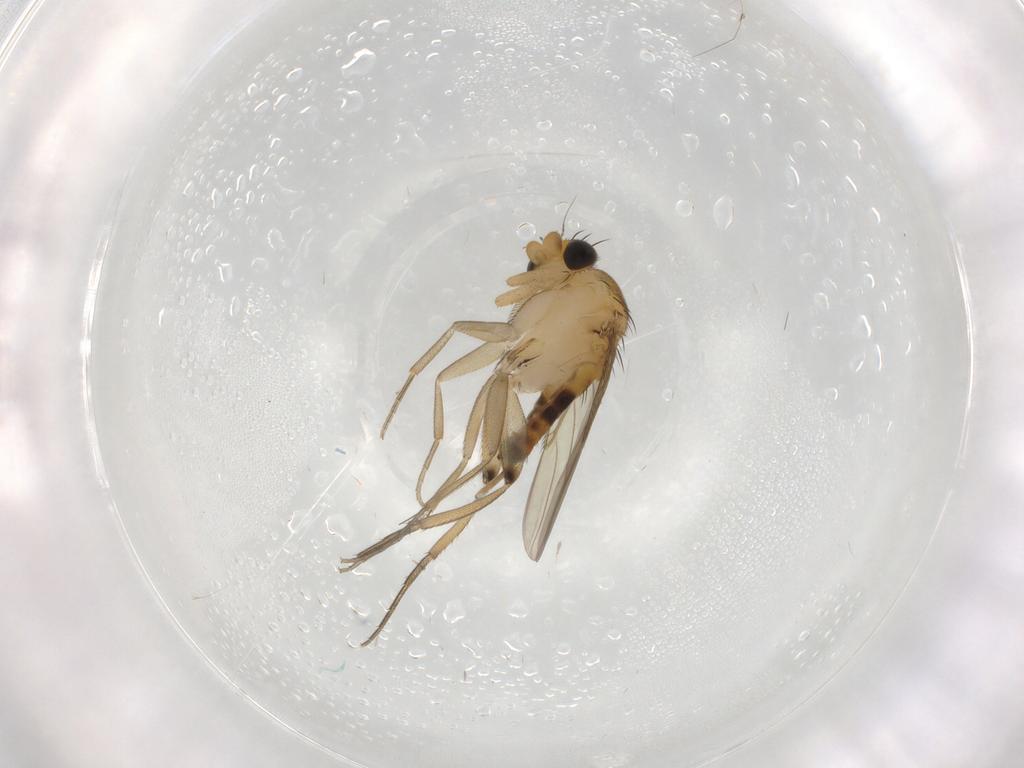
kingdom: Animalia
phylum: Arthropoda
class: Insecta
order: Diptera
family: Phoridae
